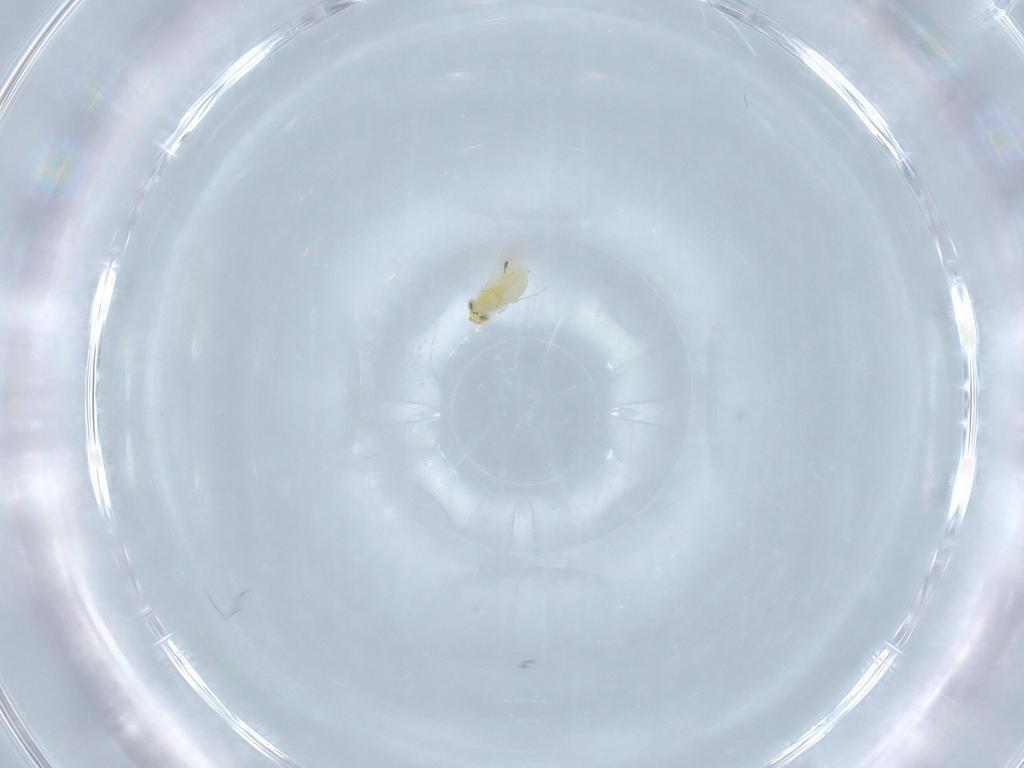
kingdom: Animalia
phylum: Arthropoda
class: Insecta
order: Hymenoptera
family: Aphelinidae
